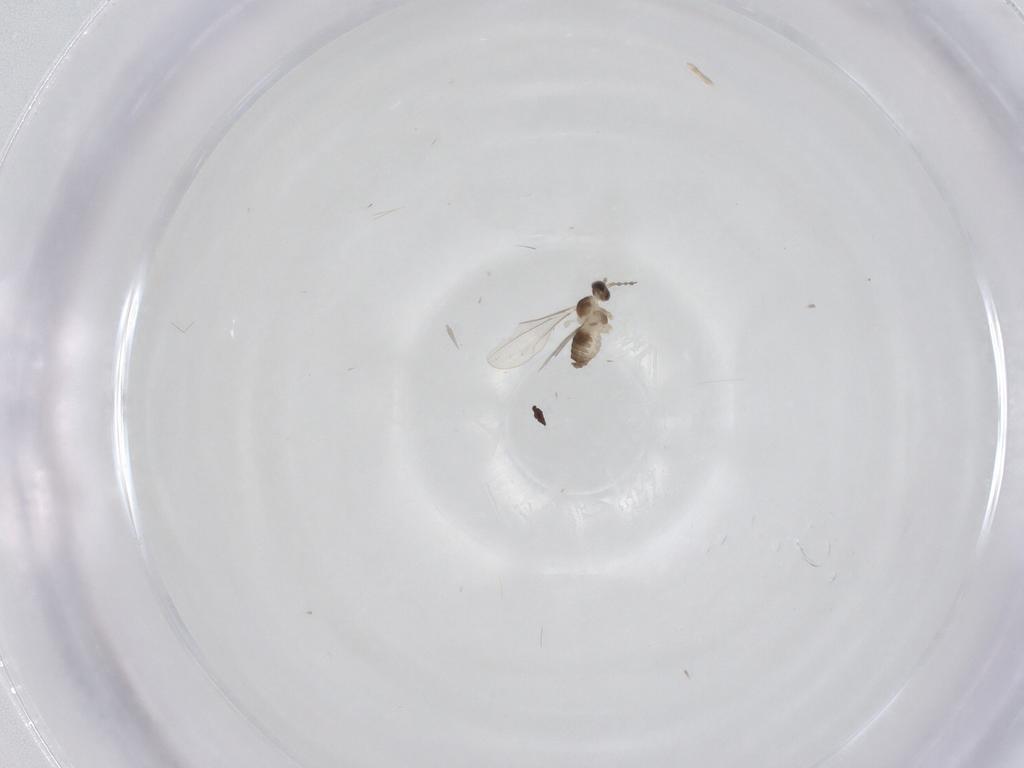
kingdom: Animalia
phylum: Arthropoda
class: Insecta
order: Diptera
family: Cecidomyiidae
